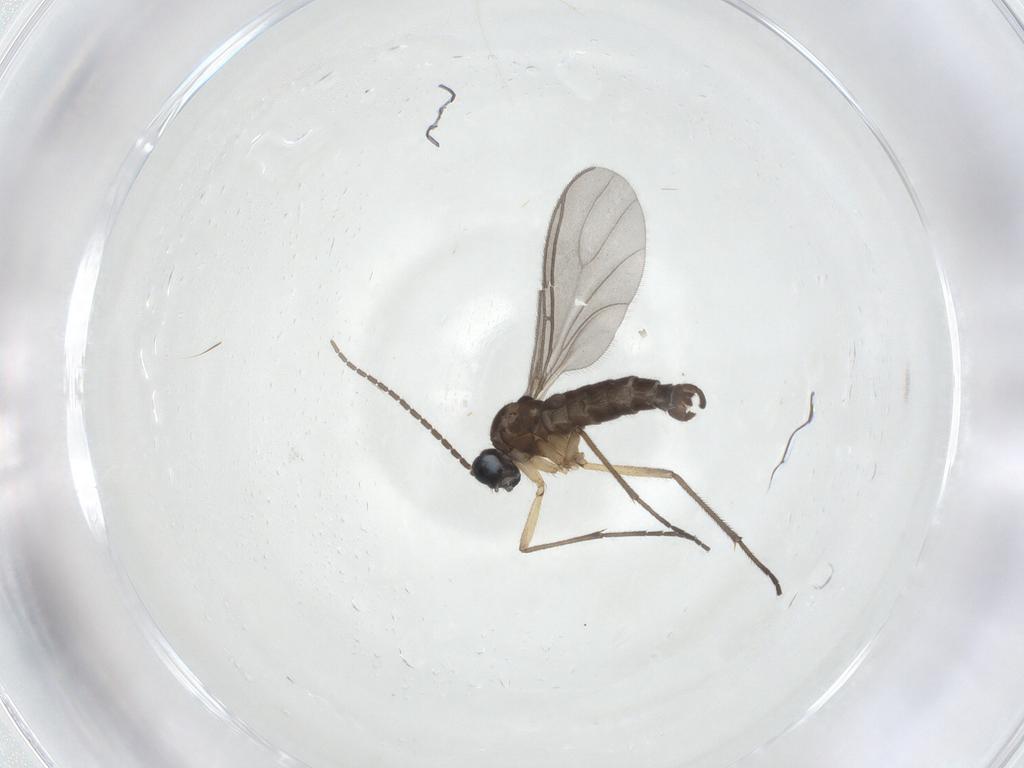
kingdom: Animalia
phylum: Arthropoda
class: Insecta
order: Diptera
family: Sciaridae
